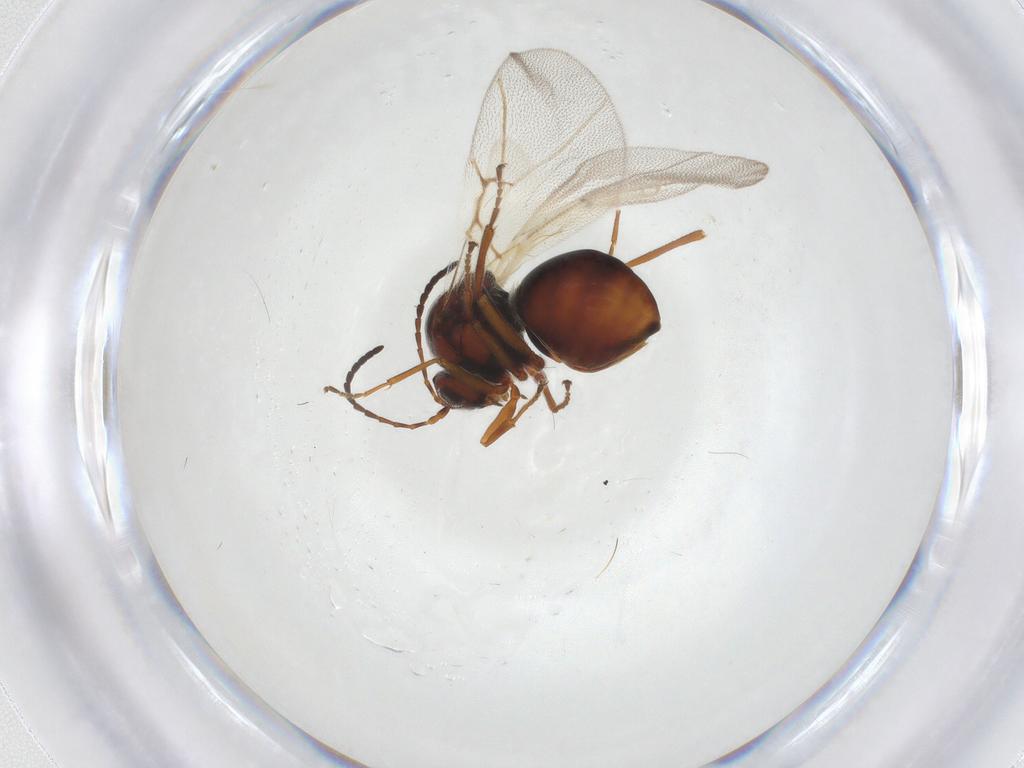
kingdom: Animalia
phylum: Arthropoda
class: Insecta
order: Hymenoptera
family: Cynipidae
